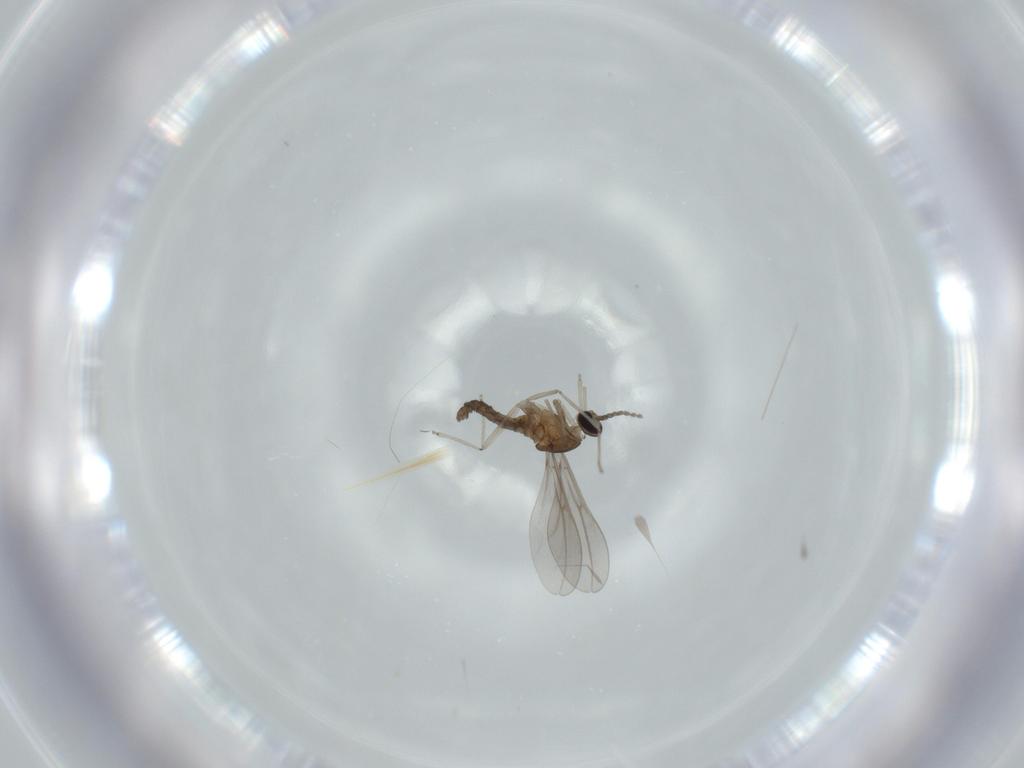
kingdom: Animalia
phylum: Arthropoda
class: Insecta
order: Diptera
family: Cecidomyiidae
